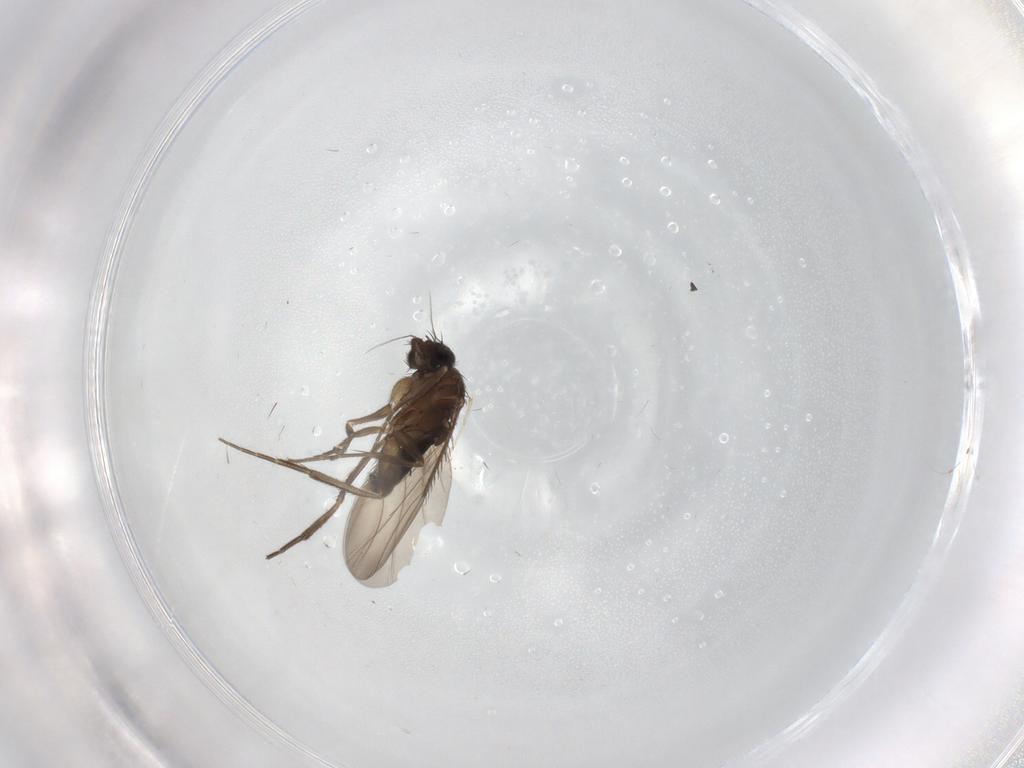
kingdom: Animalia
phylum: Arthropoda
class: Insecta
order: Diptera
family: Phoridae
